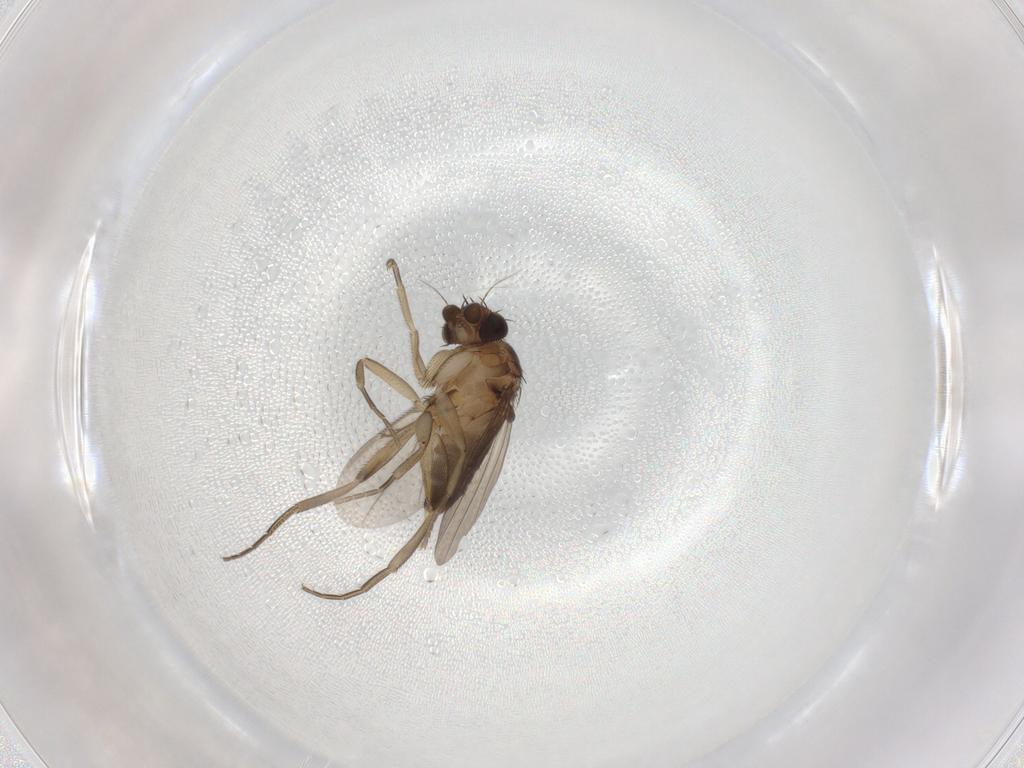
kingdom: Animalia
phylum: Arthropoda
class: Insecta
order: Diptera
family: Phoridae
